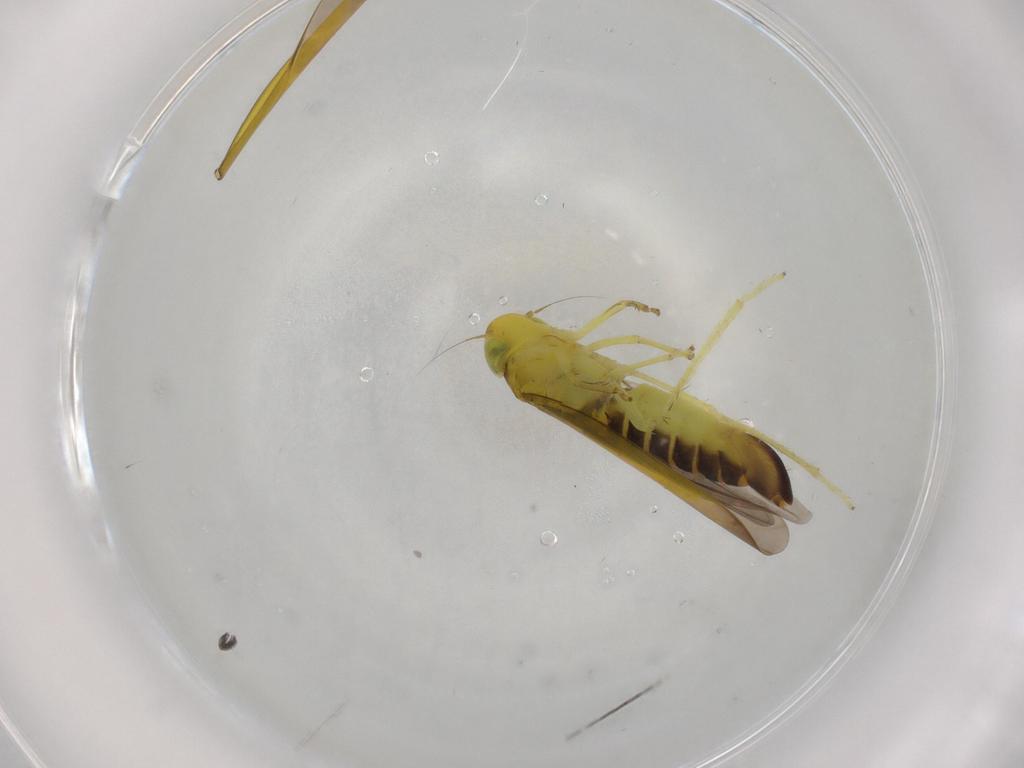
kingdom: Animalia
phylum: Arthropoda
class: Insecta
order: Hemiptera
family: Cicadellidae
